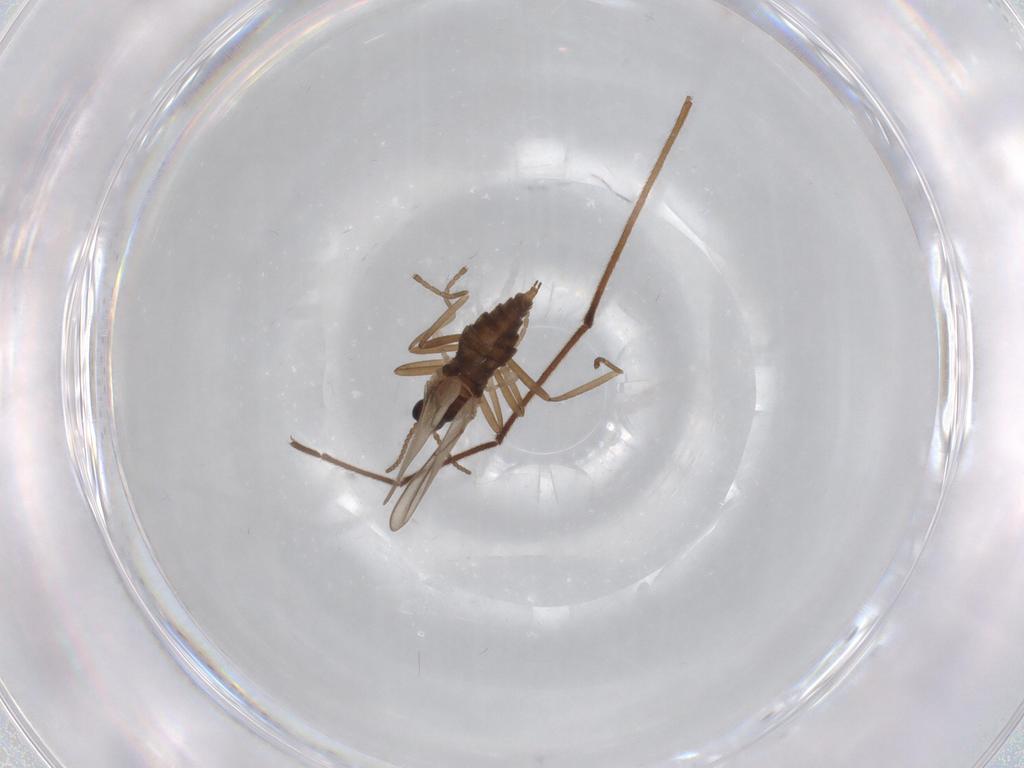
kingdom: Animalia
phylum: Arthropoda
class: Insecta
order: Diptera
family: Cecidomyiidae
